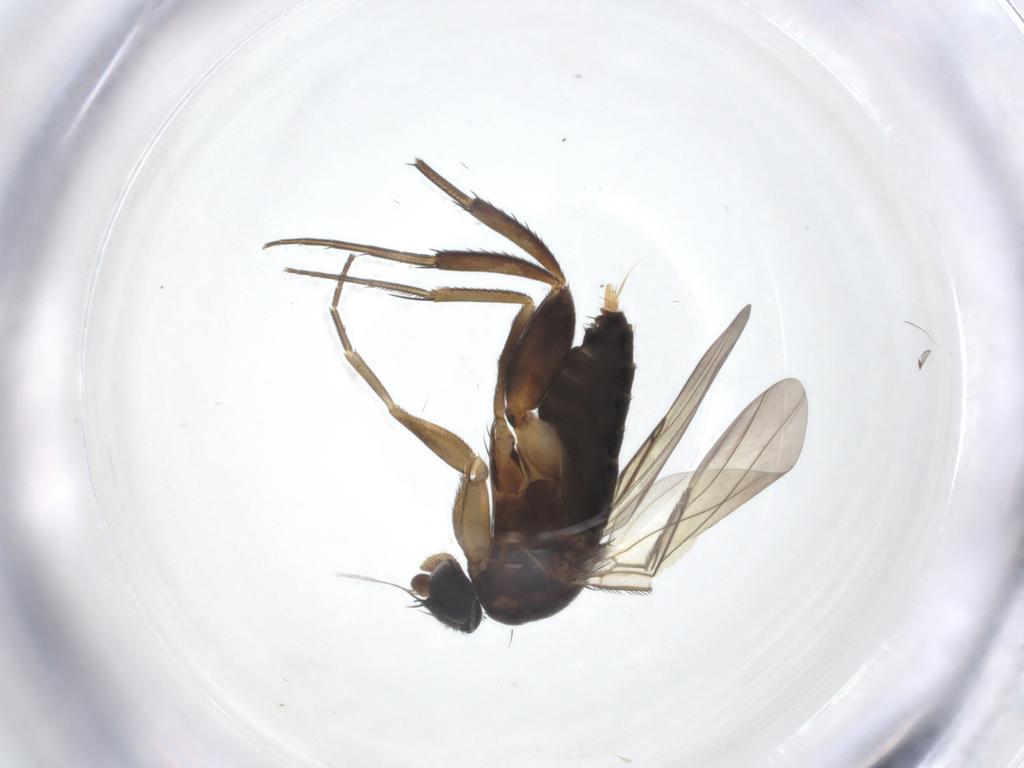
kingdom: Animalia
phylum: Arthropoda
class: Insecta
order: Diptera
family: Phoridae
